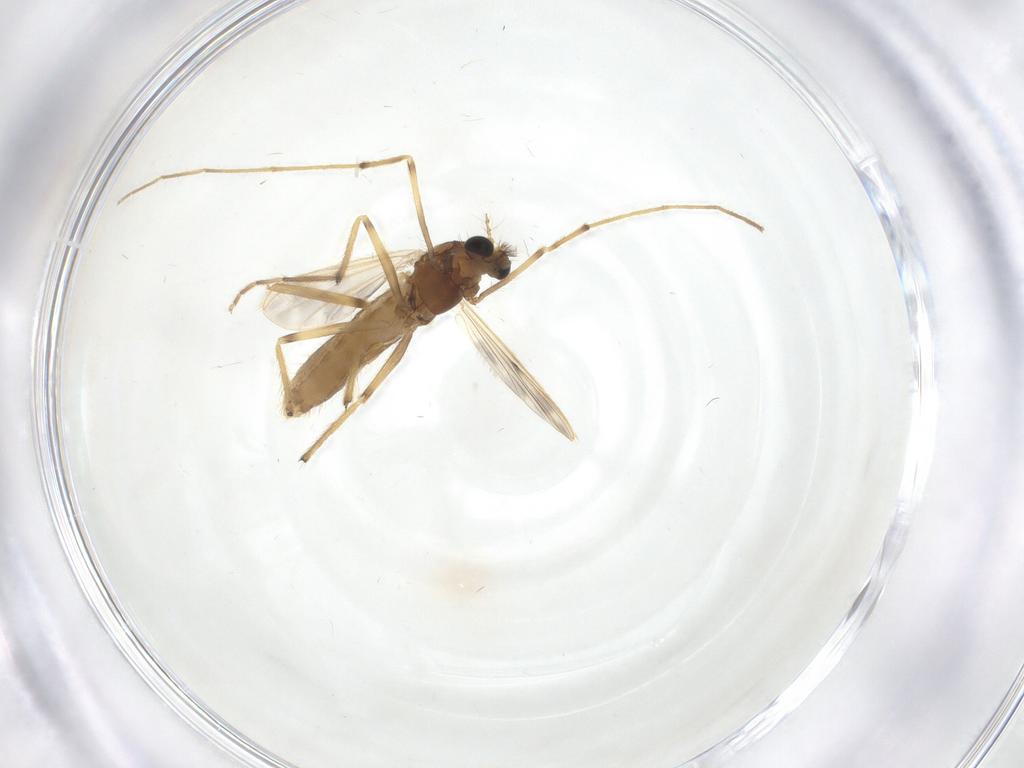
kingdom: Animalia
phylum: Arthropoda
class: Insecta
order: Diptera
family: Chironomidae
